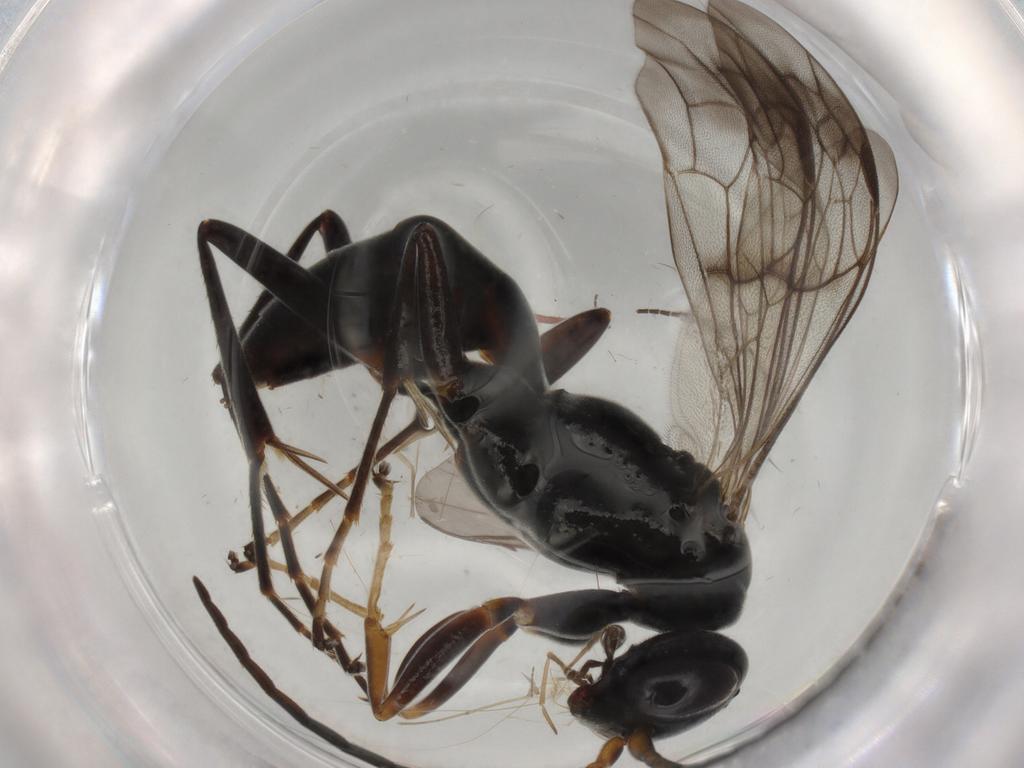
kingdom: Animalia
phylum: Arthropoda
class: Insecta
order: Hymenoptera
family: Pompilidae
